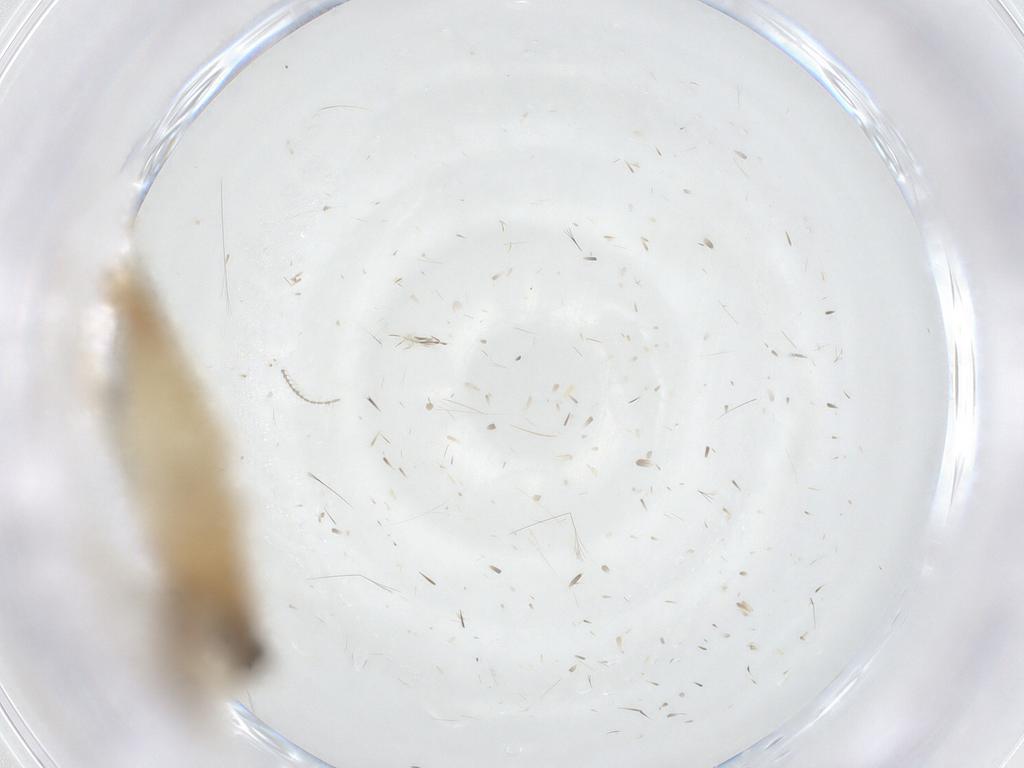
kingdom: Animalia
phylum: Arthropoda
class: Insecta
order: Lepidoptera
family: Tineidae
